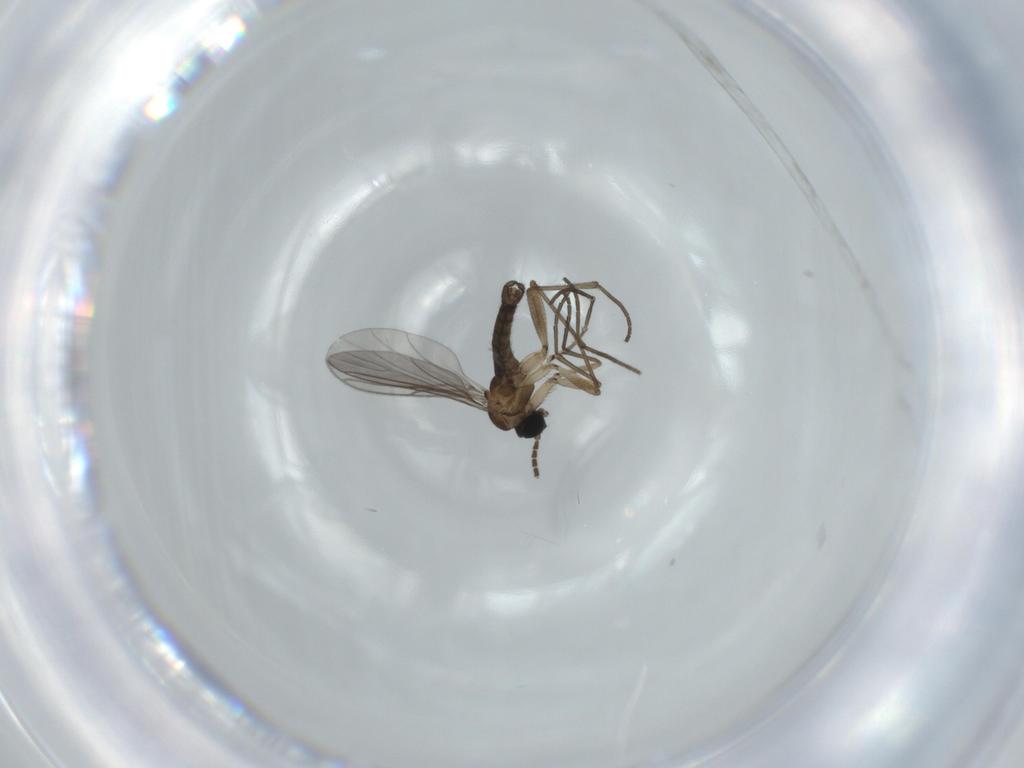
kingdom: Animalia
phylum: Arthropoda
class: Insecta
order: Diptera
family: Sciaridae
